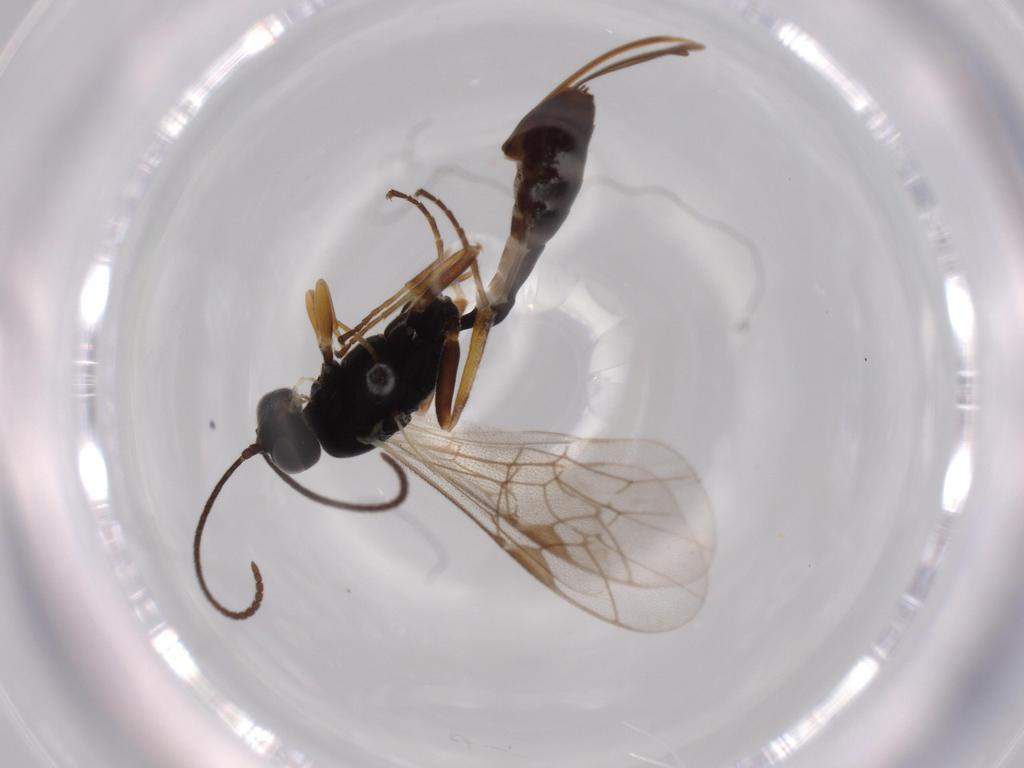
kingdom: Animalia
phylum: Arthropoda
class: Insecta
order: Hymenoptera
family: Ichneumonidae
